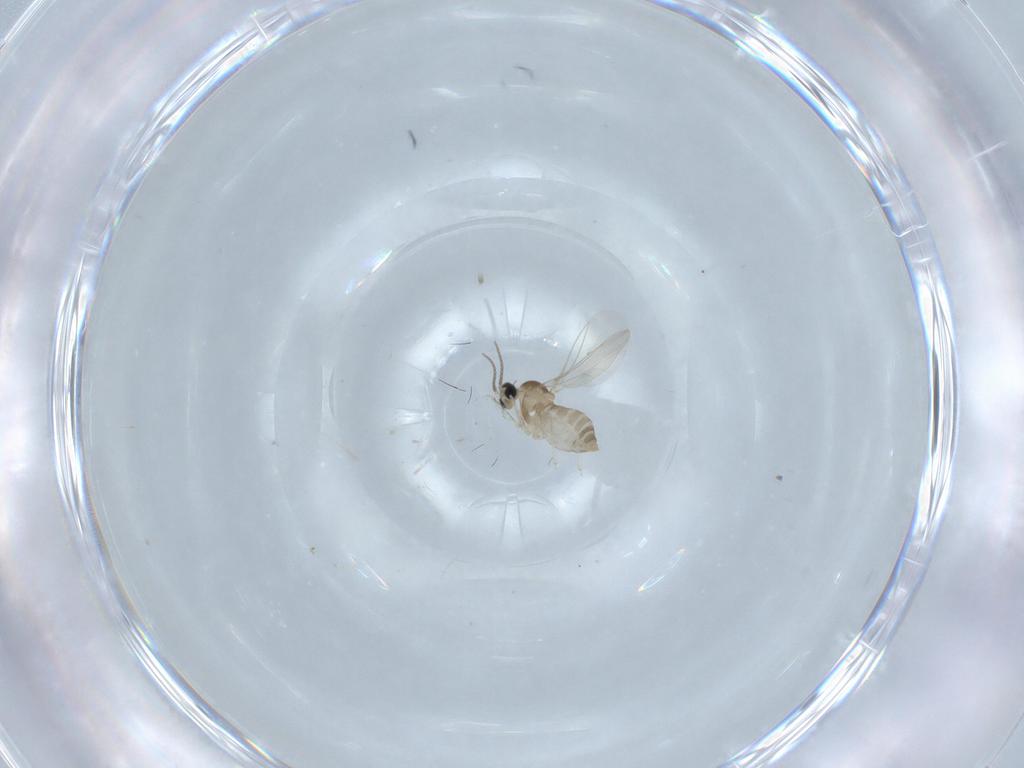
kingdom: Animalia
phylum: Arthropoda
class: Insecta
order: Diptera
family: Cecidomyiidae
